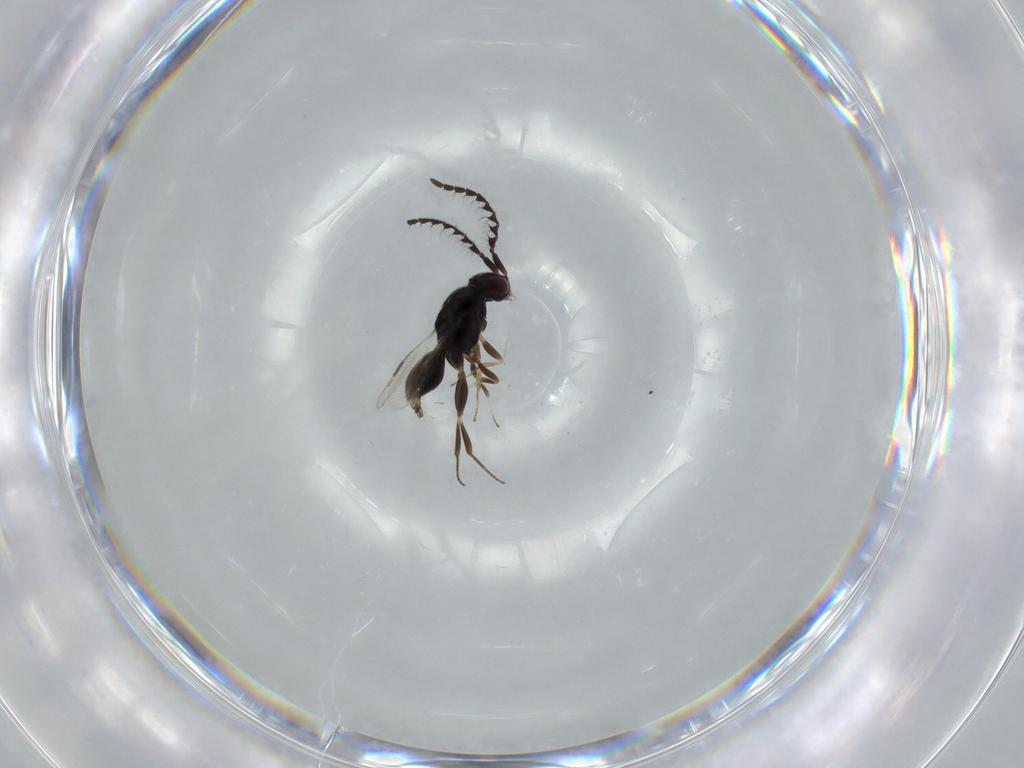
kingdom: Animalia
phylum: Arthropoda
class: Insecta
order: Hymenoptera
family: Megaspilidae
